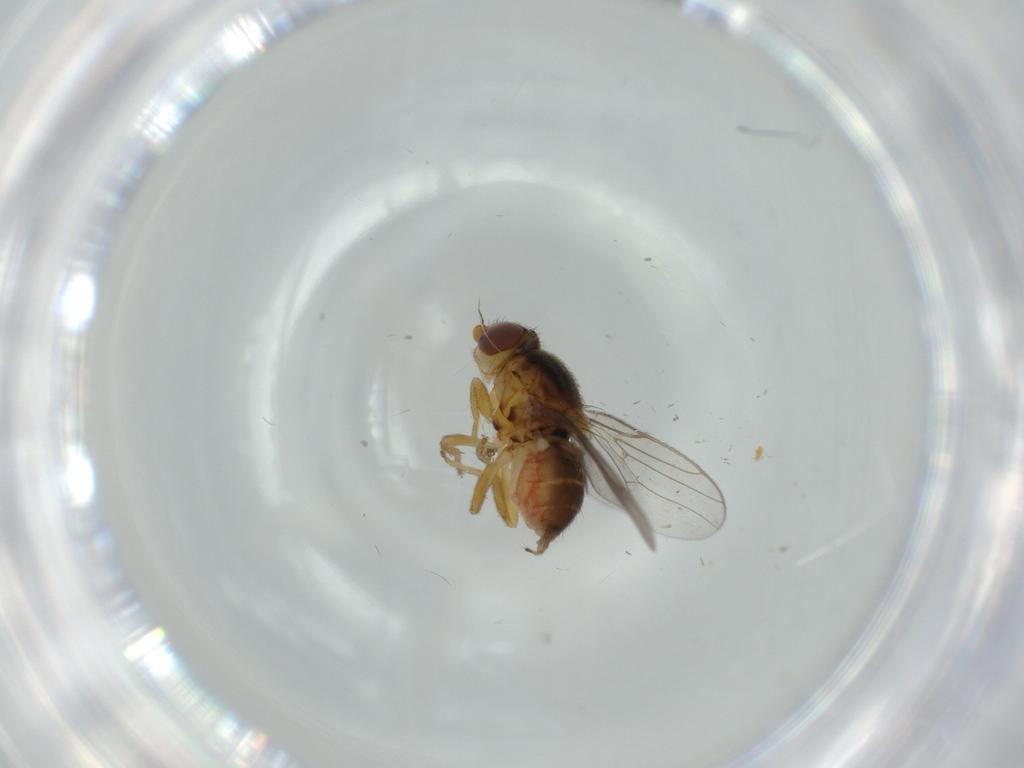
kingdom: Animalia
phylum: Arthropoda
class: Insecta
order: Diptera
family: Chloropidae
